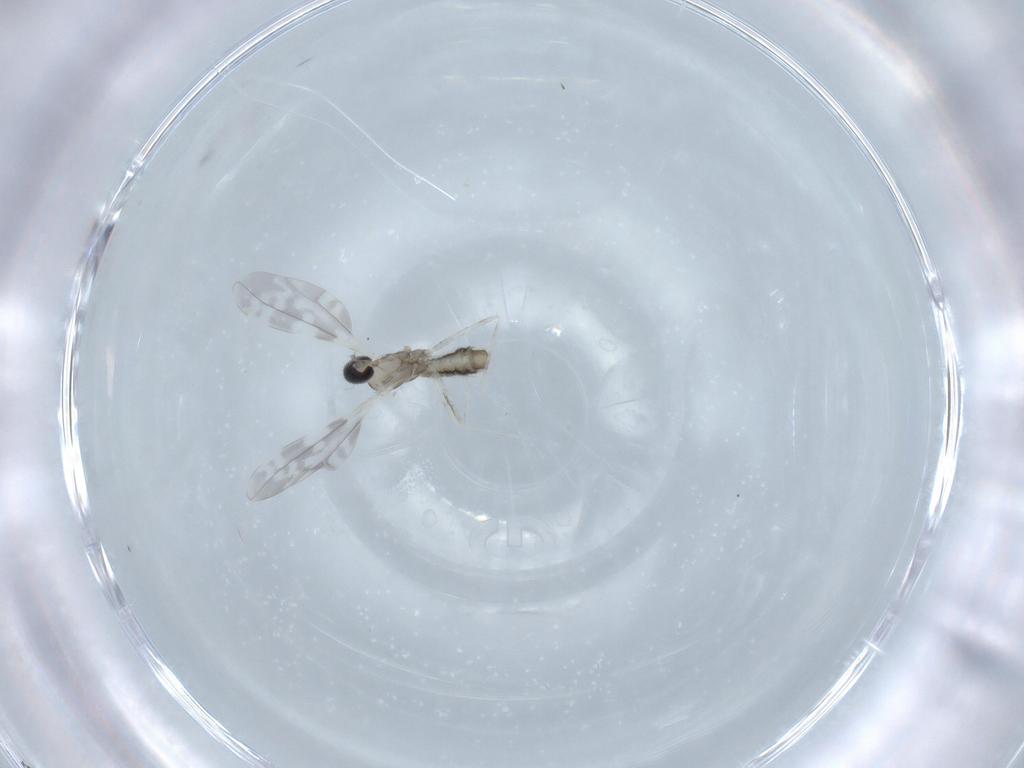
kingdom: Animalia
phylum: Arthropoda
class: Insecta
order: Diptera
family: Cecidomyiidae
